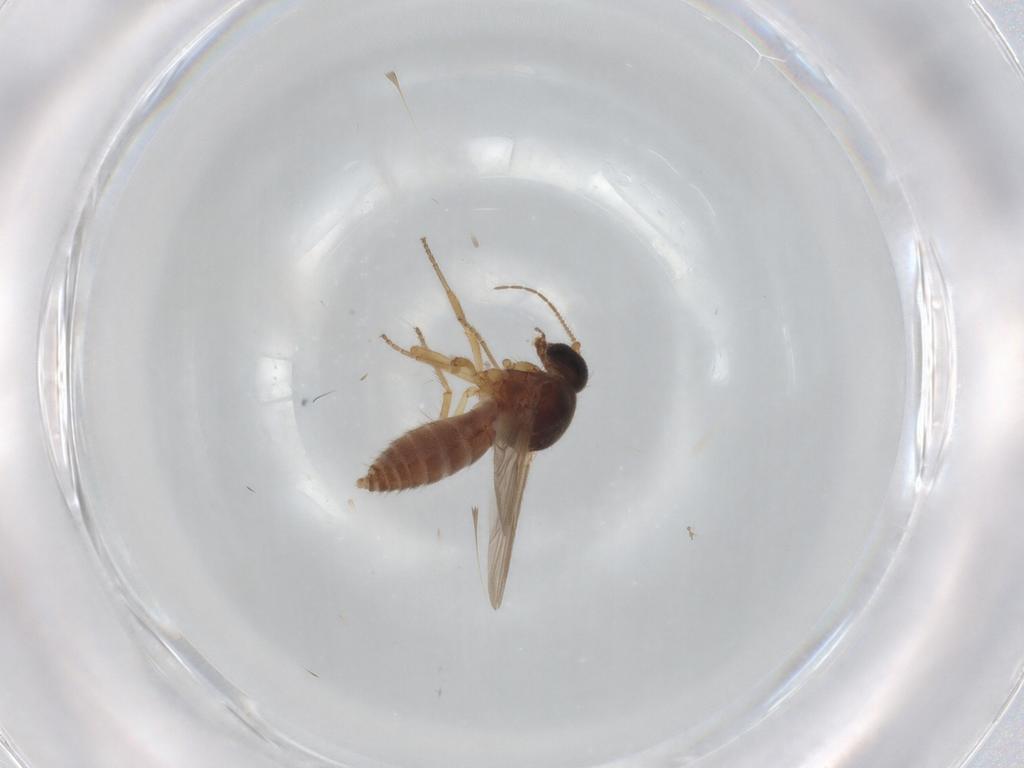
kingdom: Animalia
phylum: Arthropoda
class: Insecta
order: Diptera
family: Ceratopogonidae
